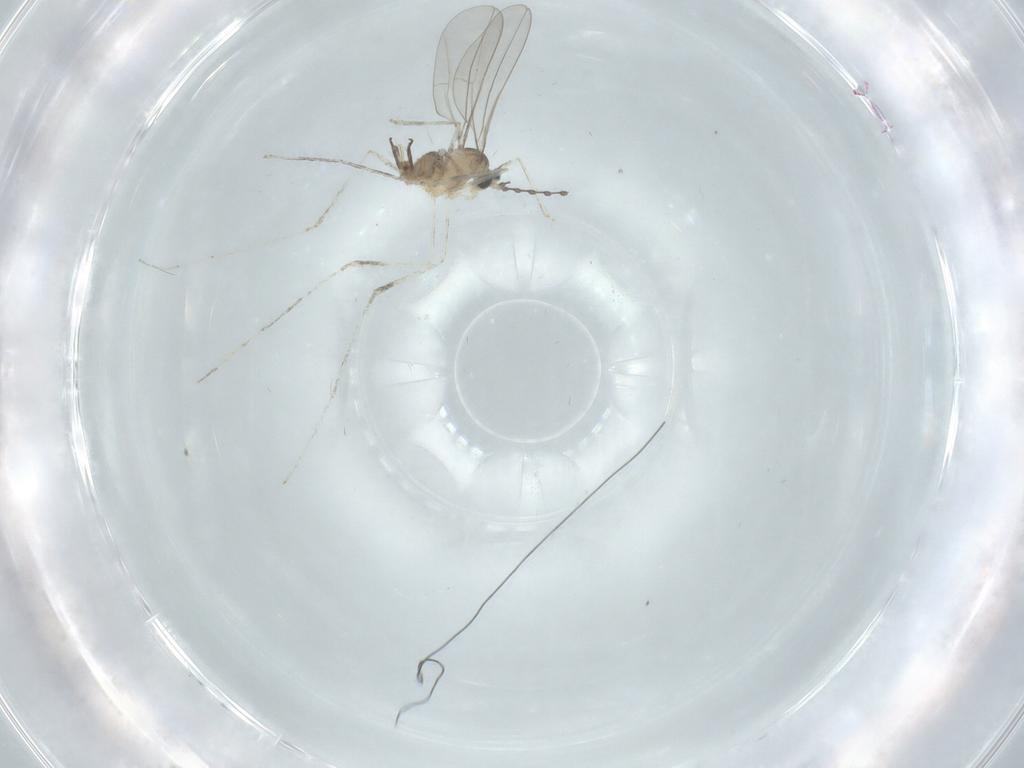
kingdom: Animalia
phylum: Arthropoda
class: Insecta
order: Diptera
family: Cecidomyiidae
